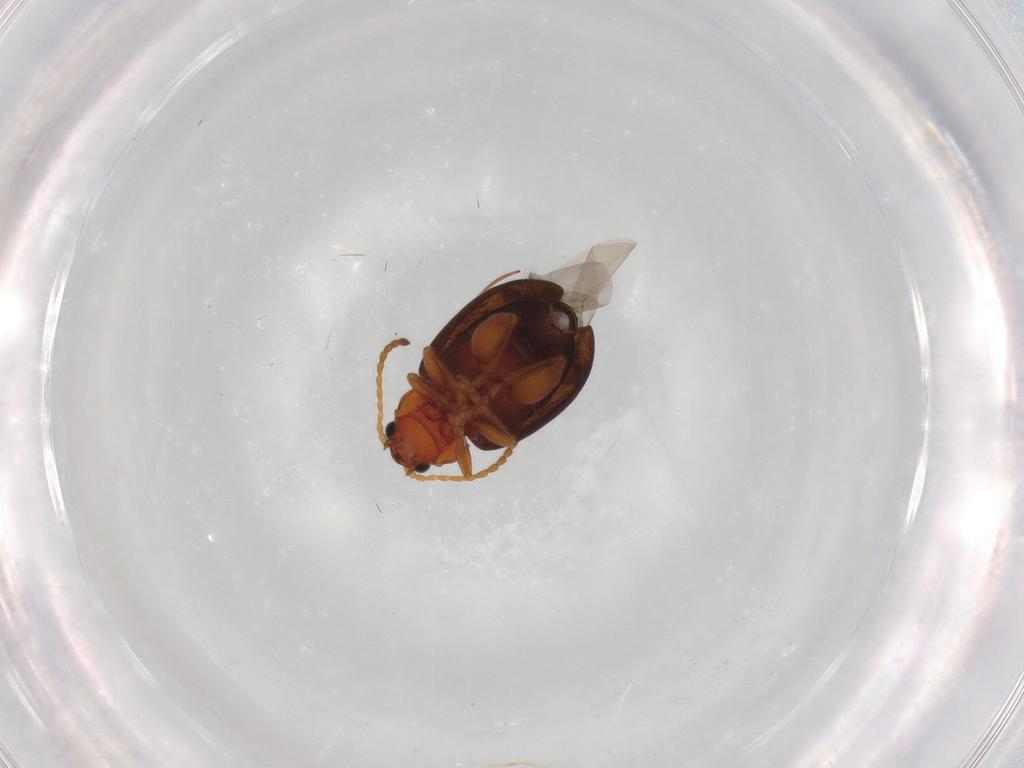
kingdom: Animalia
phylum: Arthropoda
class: Insecta
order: Coleoptera
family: Chrysomelidae
